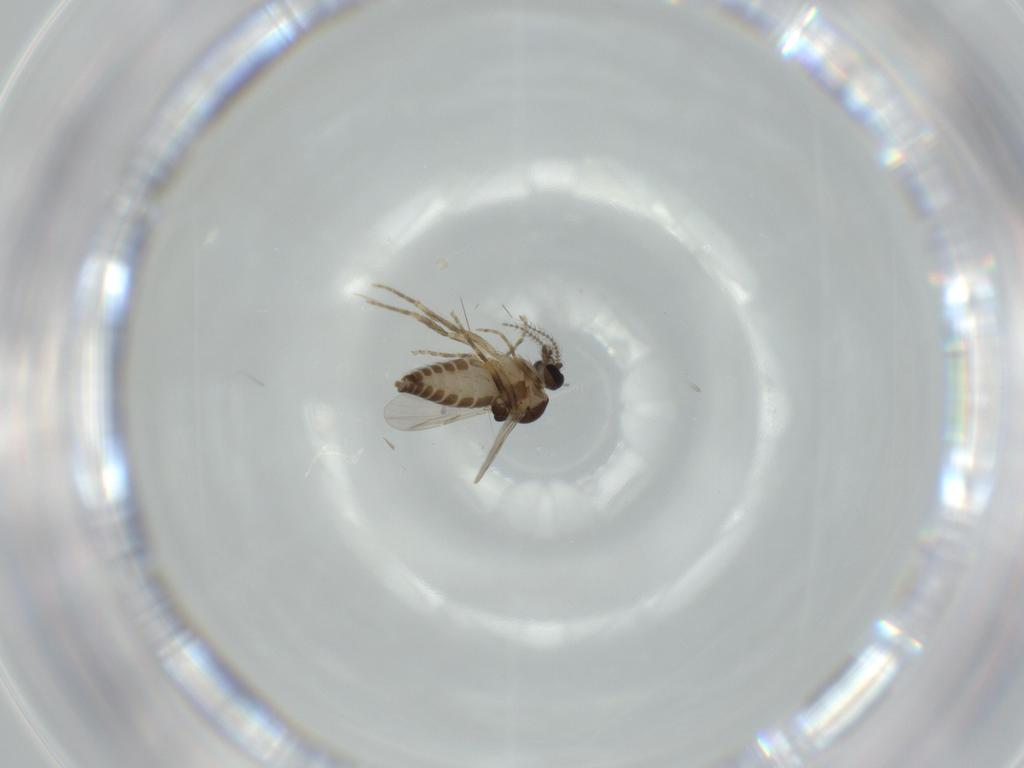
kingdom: Animalia
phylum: Arthropoda
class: Insecta
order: Diptera
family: Ceratopogonidae
